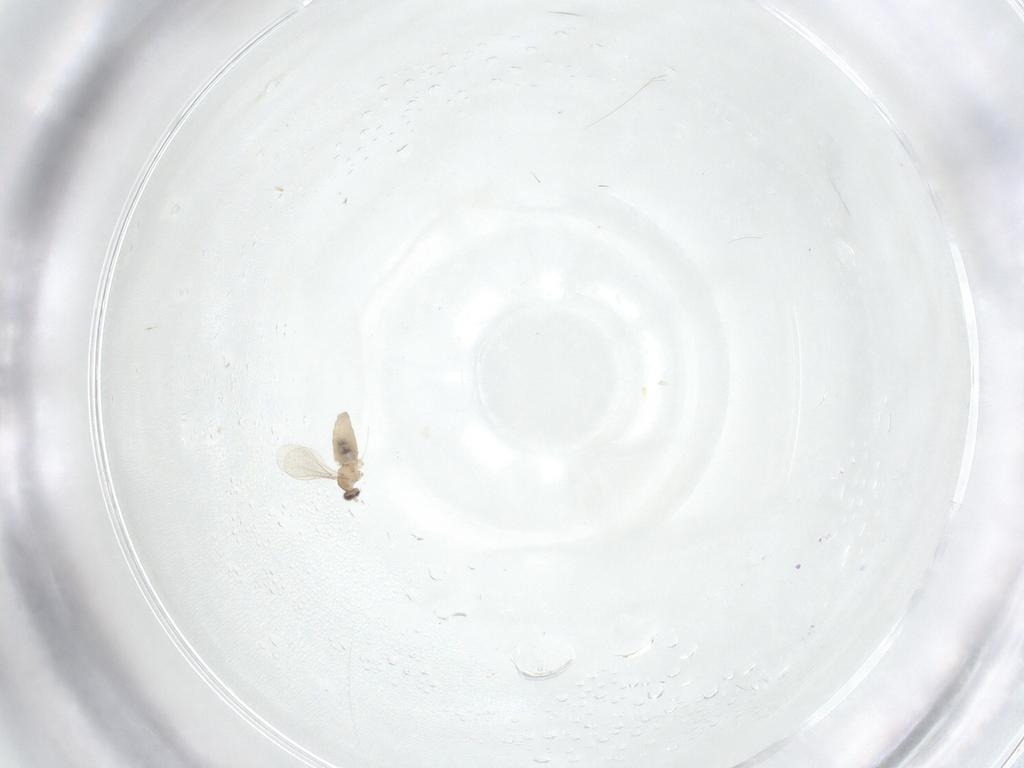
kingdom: Animalia
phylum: Arthropoda
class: Insecta
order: Diptera
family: Cecidomyiidae
